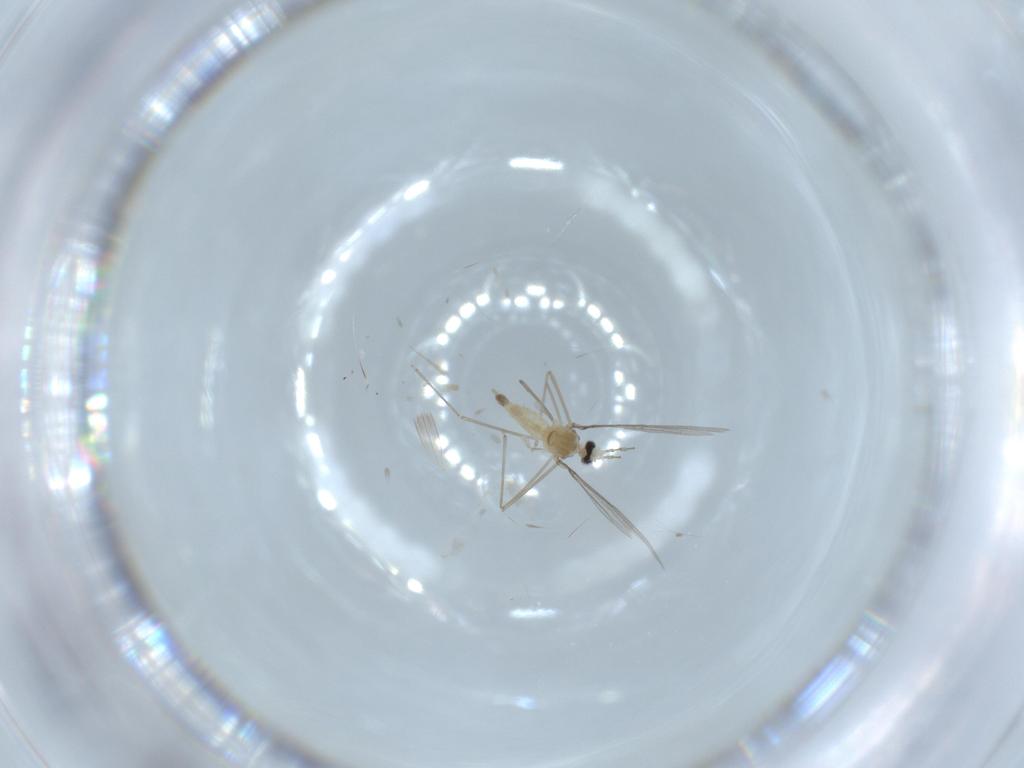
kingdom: Animalia
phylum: Arthropoda
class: Insecta
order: Diptera
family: Cecidomyiidae
